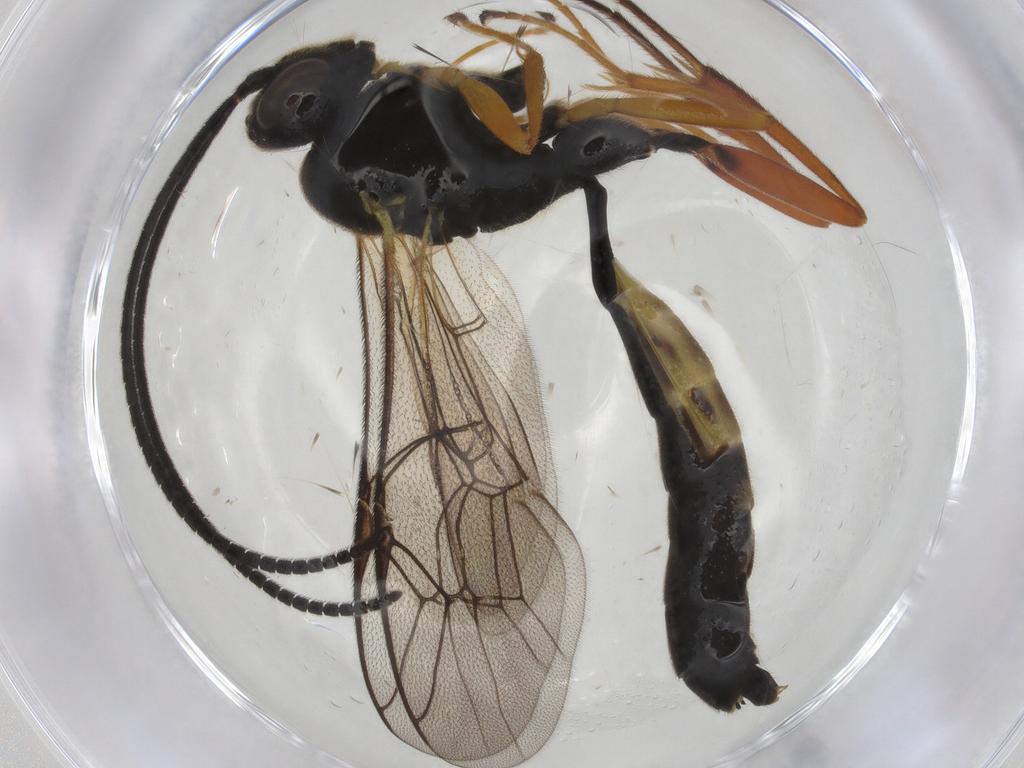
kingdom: Animalia
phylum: Arthropoda
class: Insecta
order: Hymenoptera
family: Ichneumonidae
